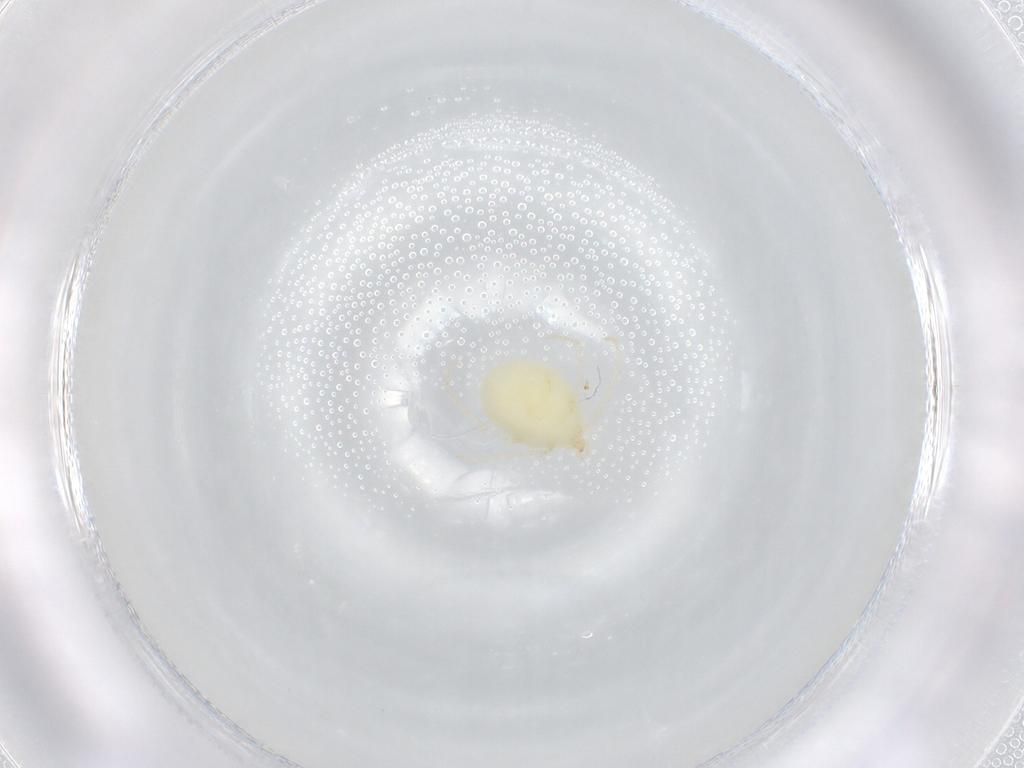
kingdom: Animalia
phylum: Arthropoda
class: Arachnida
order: Trombidiformes
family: Erythraeidae
